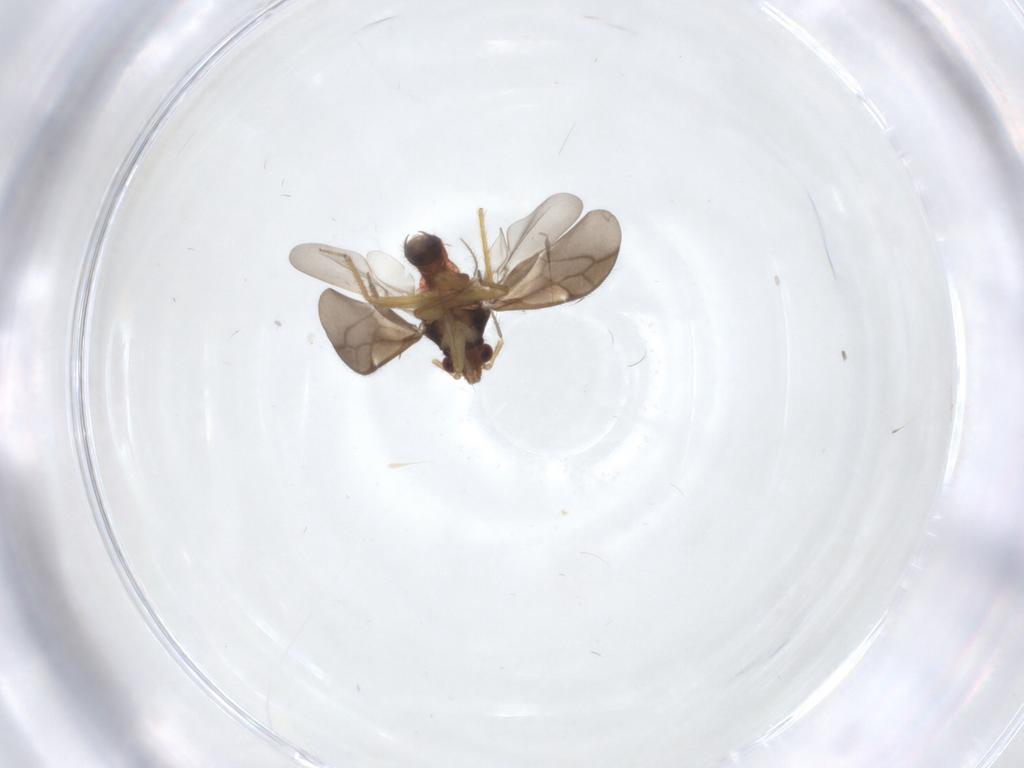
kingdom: Animalia
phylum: Arthropoda
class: Insecta
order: Hemiptera
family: Ceratocombidae
